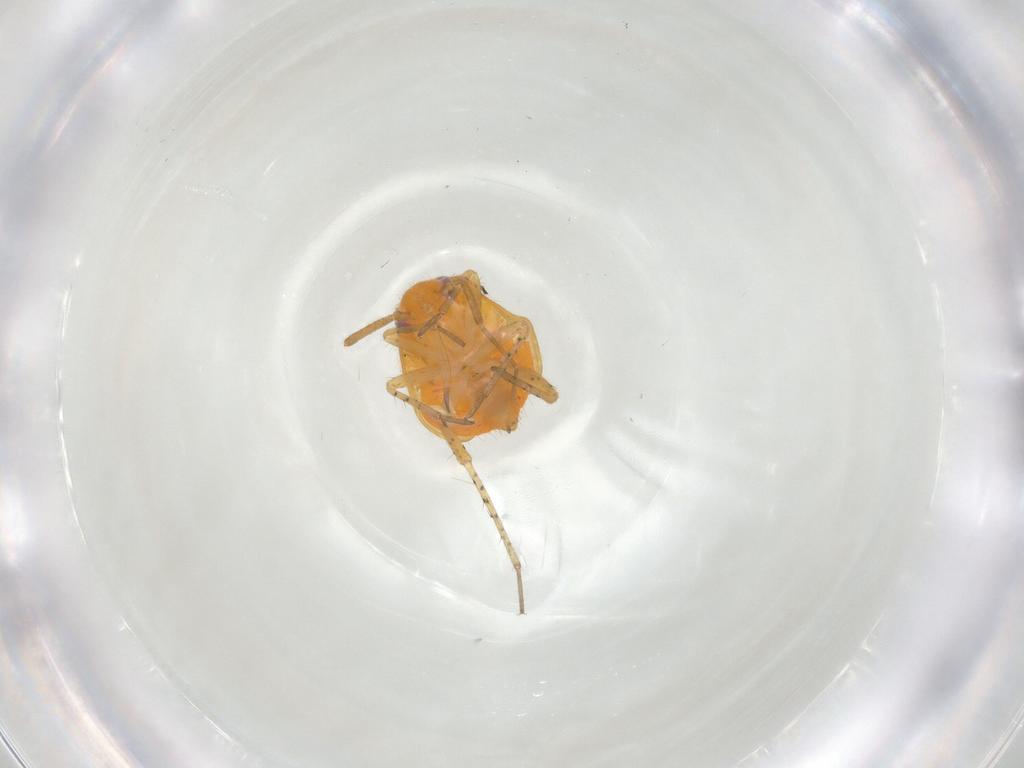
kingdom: Animalia
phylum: Arthropoda
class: Insecta
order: Hemiptera
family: Miridae
